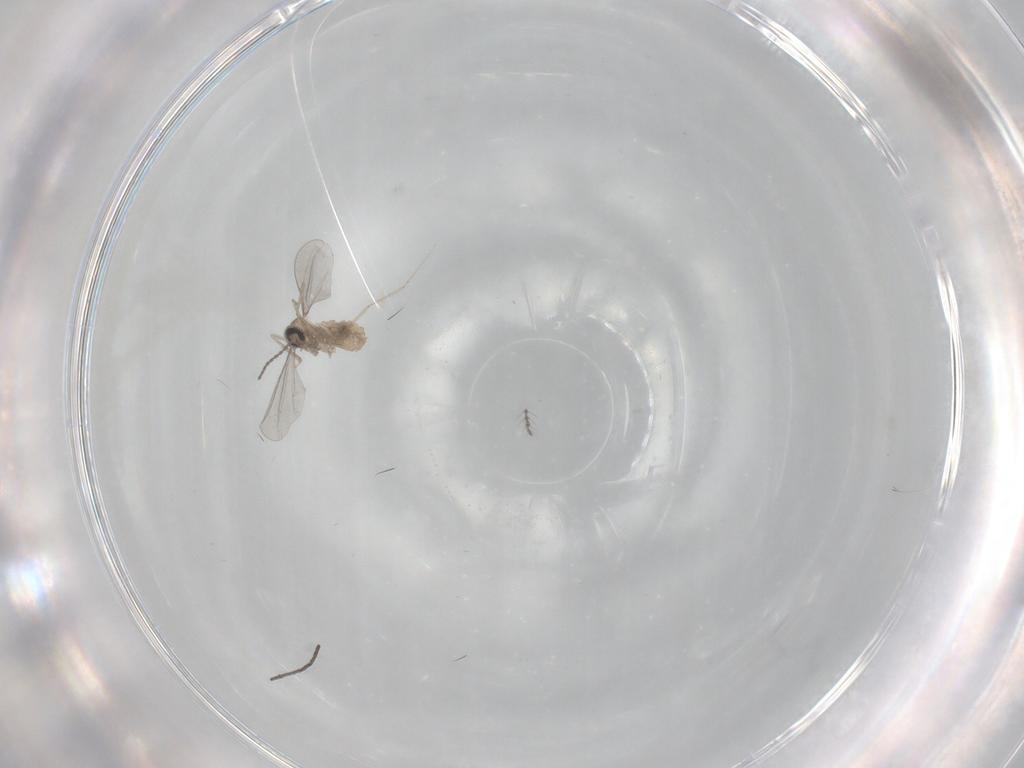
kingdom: Animalia
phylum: Arthropoda
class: Insecta
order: Diptera
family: Cecidomyiidae
